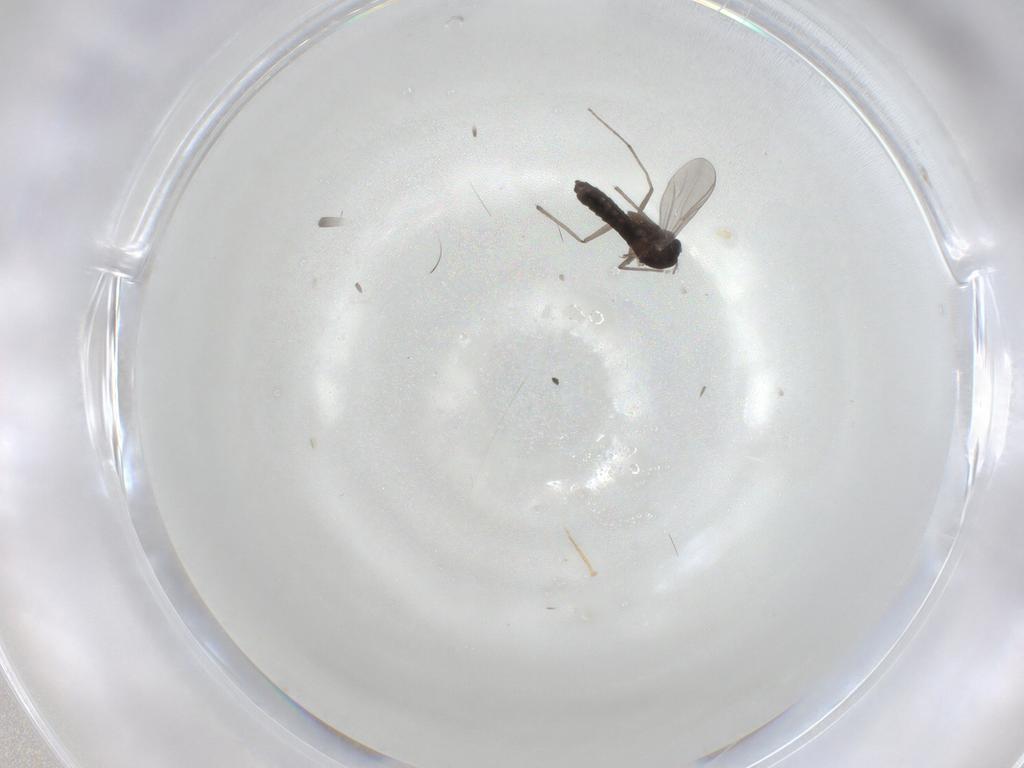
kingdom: Animalia
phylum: Arthropoda
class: Insecta
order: Diptera
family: Chironomidae
